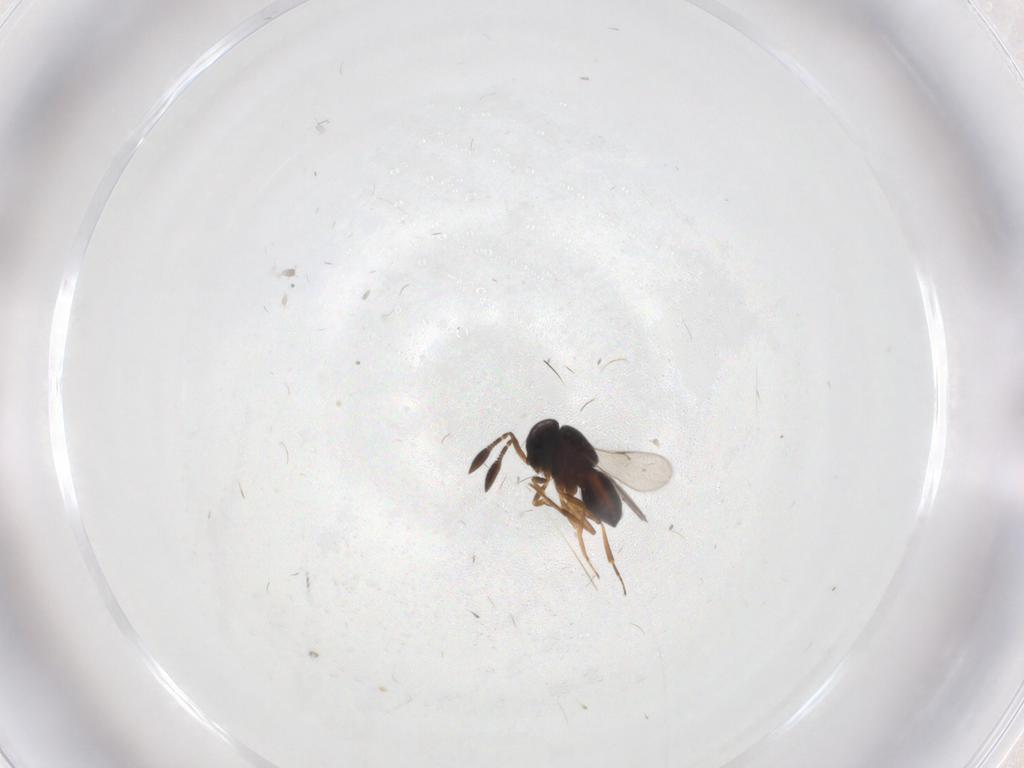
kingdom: Animalia
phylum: Arthropoda
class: Insecta
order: Hymenoptera
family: Scelionidae
